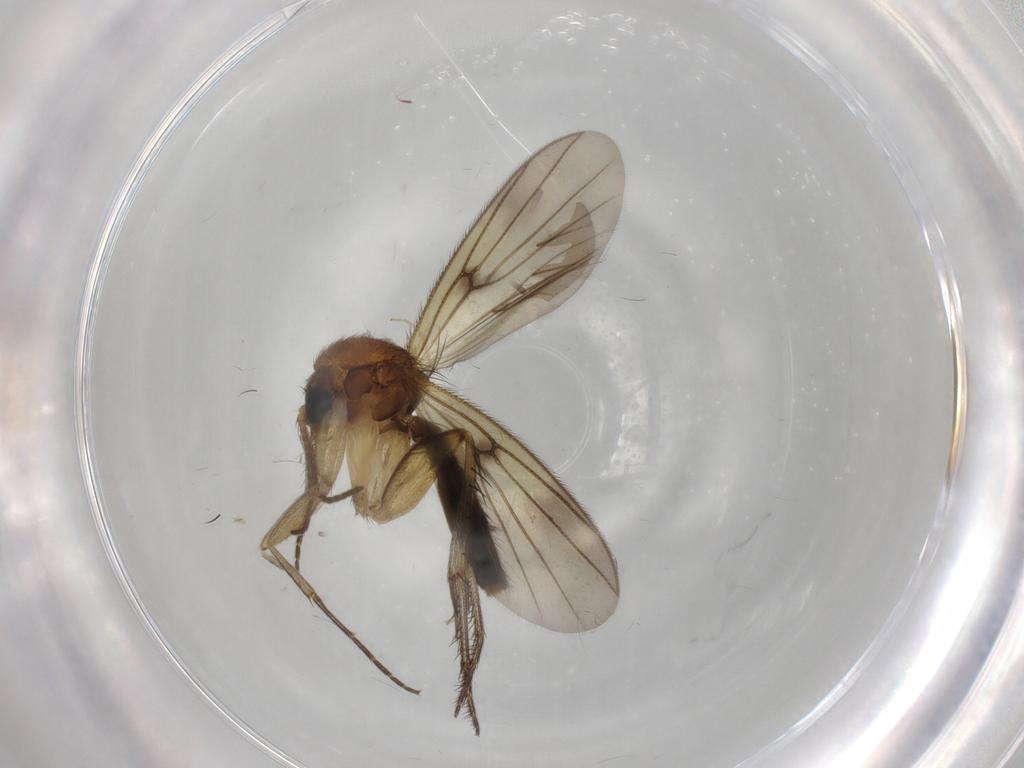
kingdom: Animalia
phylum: Arthropoda
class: Insecta
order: Diptera
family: Mycetophilidae
